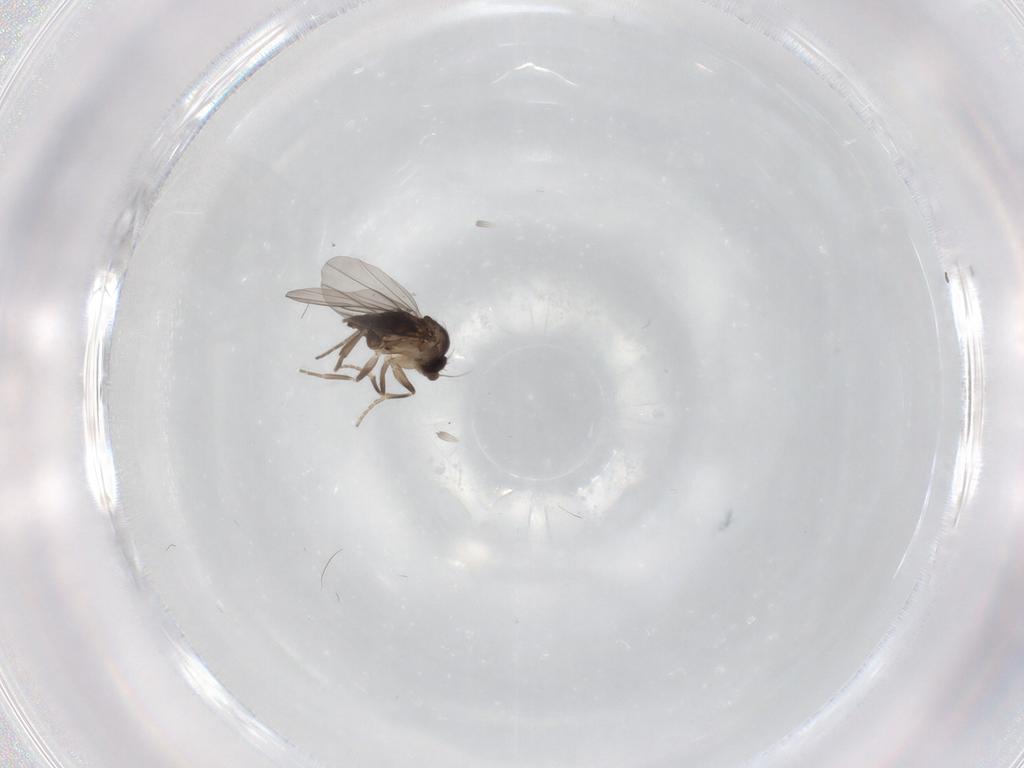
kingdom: Animalia
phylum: Arthropoda
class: Insecta
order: Diptera
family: Phoridae
